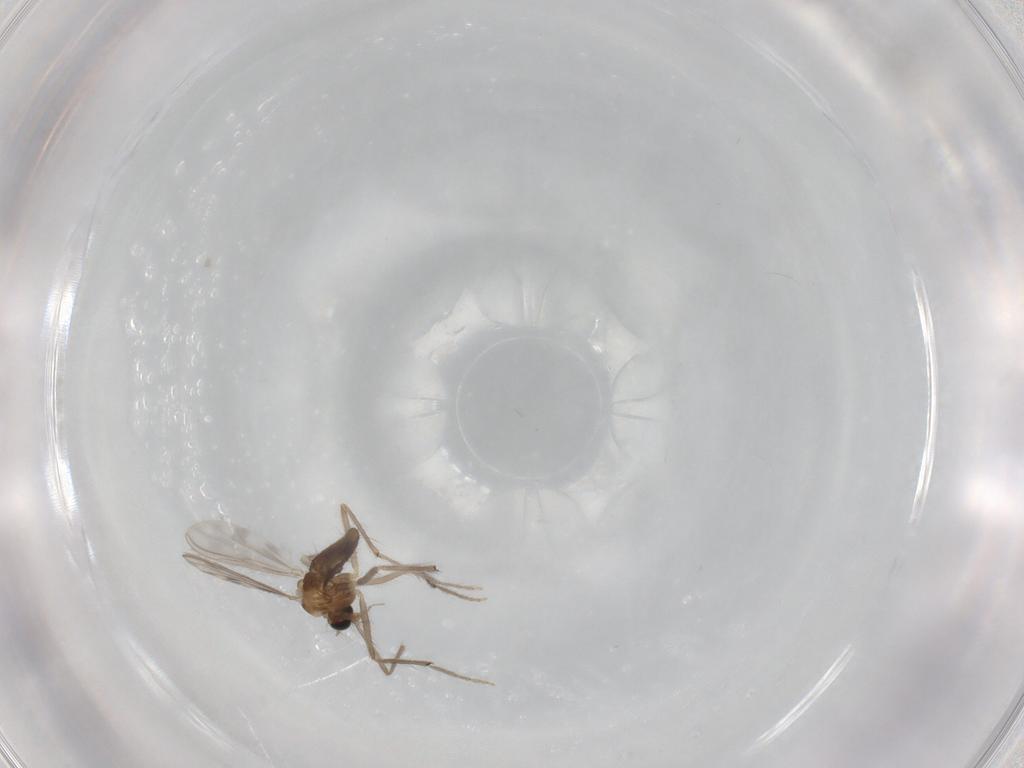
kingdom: Animalia
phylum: Arthropoda
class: Insecta
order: Diptera
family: Chironomidae
